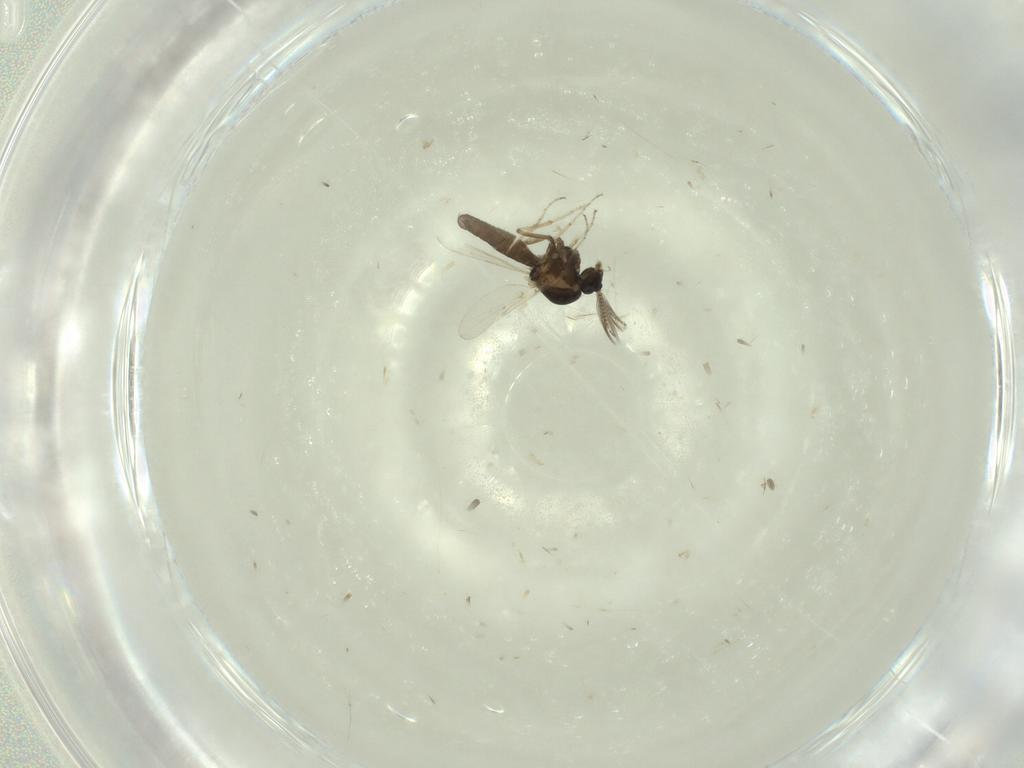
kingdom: Animalia
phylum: Arthropoda
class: Insecta
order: Diptera
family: Ceratopogonidae
